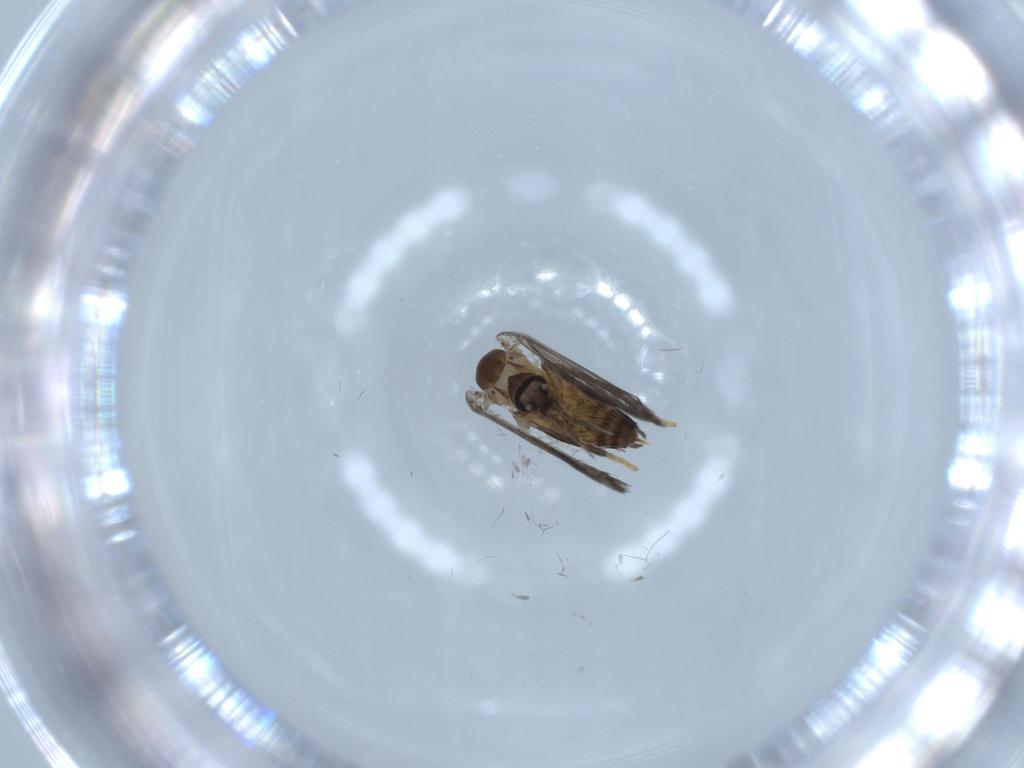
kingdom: Animalia
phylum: Arthropoda
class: Insecta
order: Diptera
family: Psychodidae
